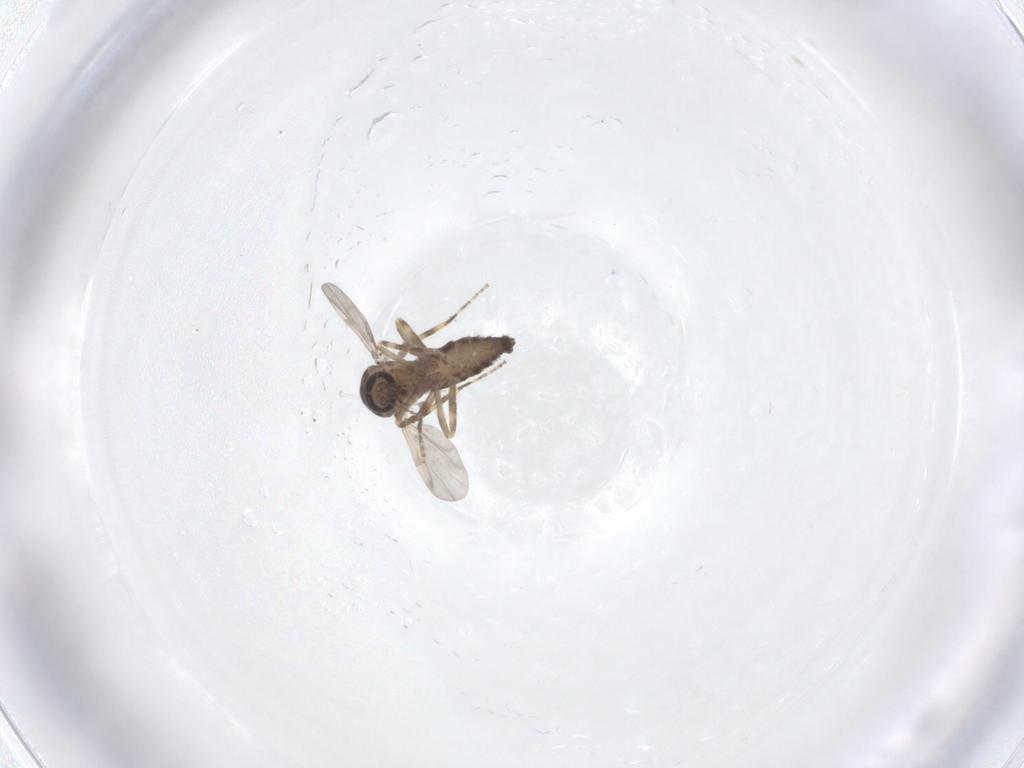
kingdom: Animalia
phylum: Arthropoda
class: Insecta
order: Diptera
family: Ceratopogonidae
